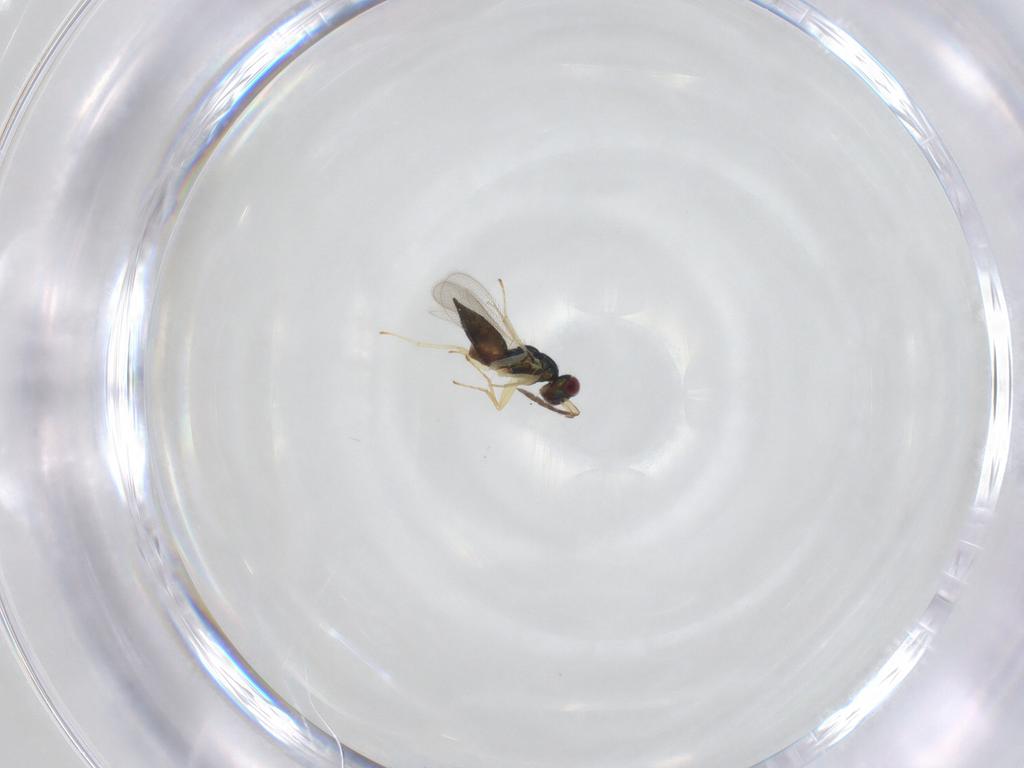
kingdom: Animalia
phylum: Arthropoda
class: Insecta
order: Hymenoptera
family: Eulophidae
